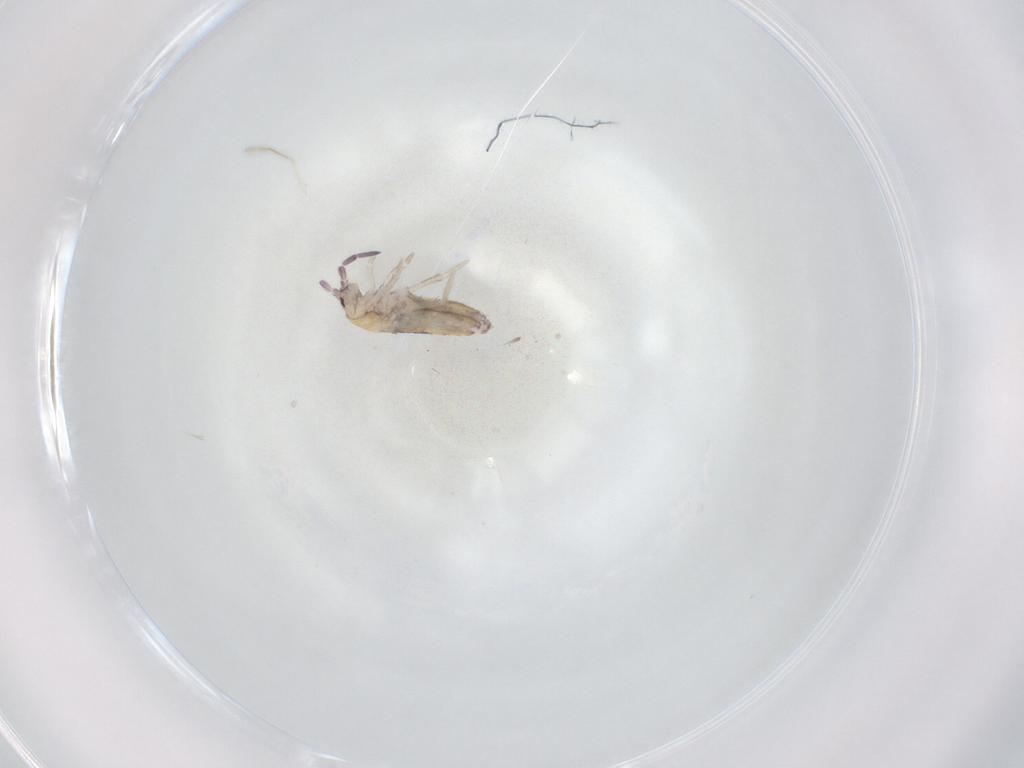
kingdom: Animalia
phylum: Arthropoda
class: Collembola
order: Entomobryomorpha
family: Entomobryidae
